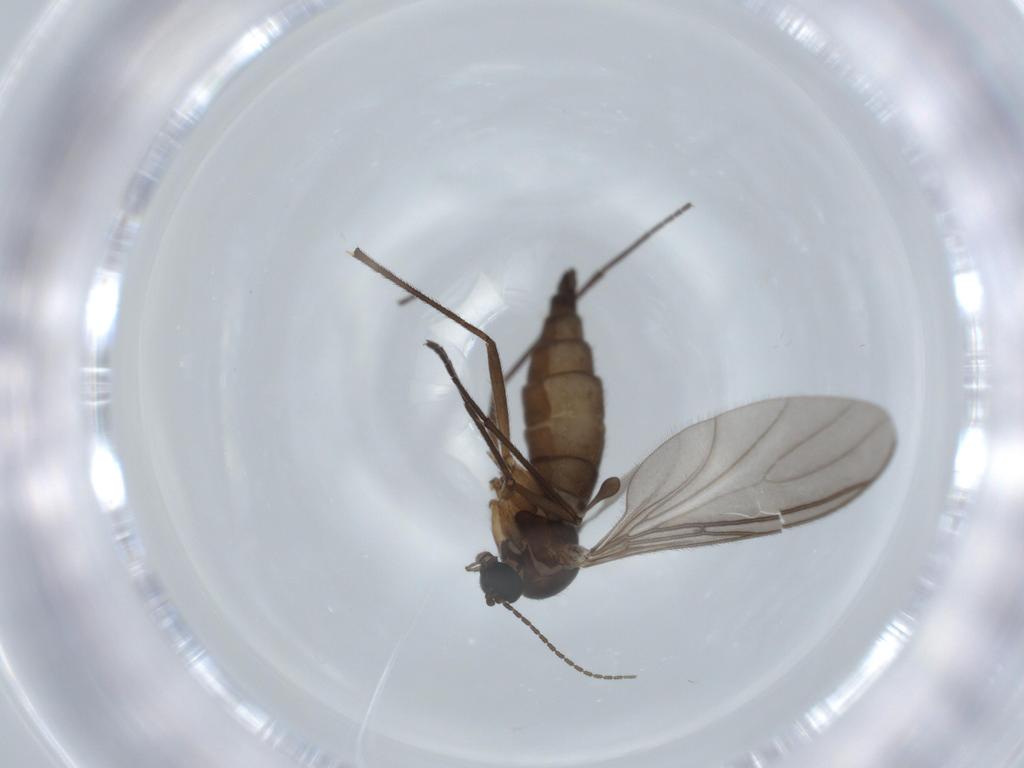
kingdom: Animalia
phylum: Arthropoda
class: Insecta
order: Diptera
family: Sciaridae
